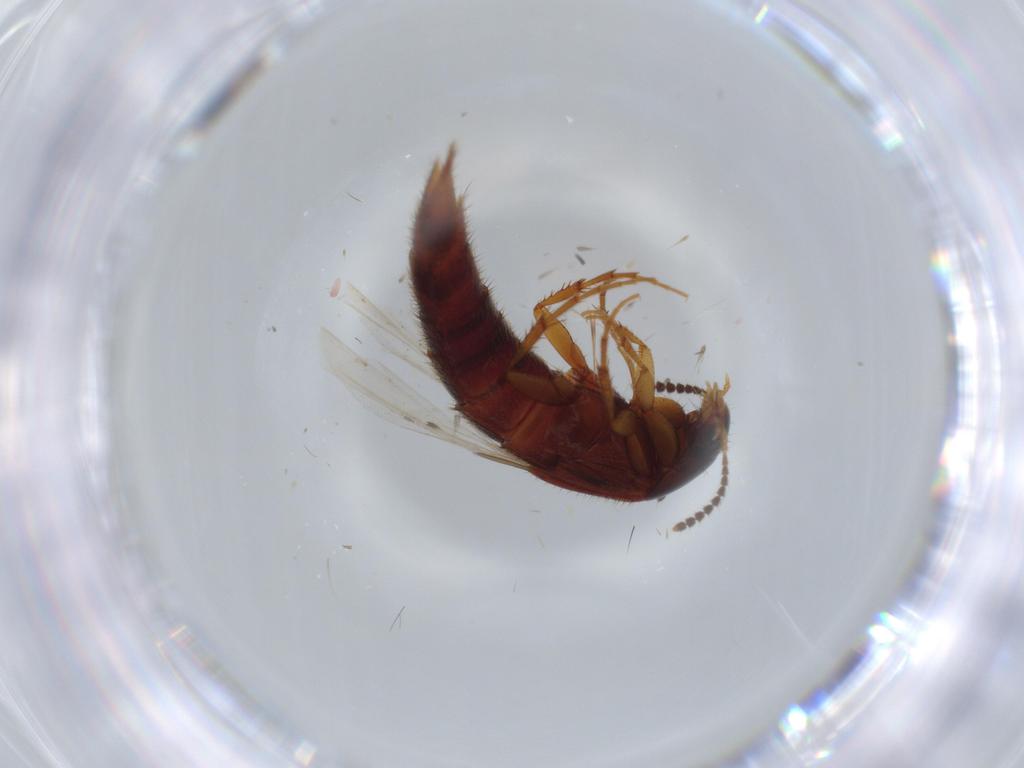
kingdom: Animalia
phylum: Arthropoda
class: Insecta
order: Coleoptera
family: Staphylinidae
